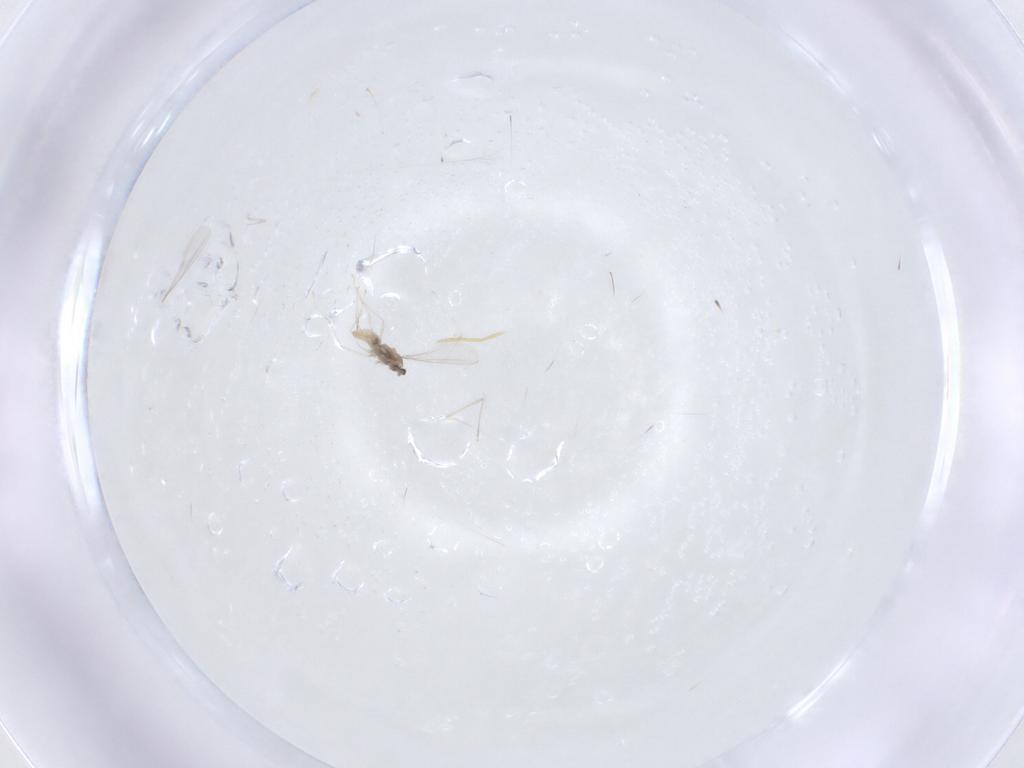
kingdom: Animalia
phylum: Arthropoda
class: Insecta
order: Diptera
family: Cecidomyiidae
